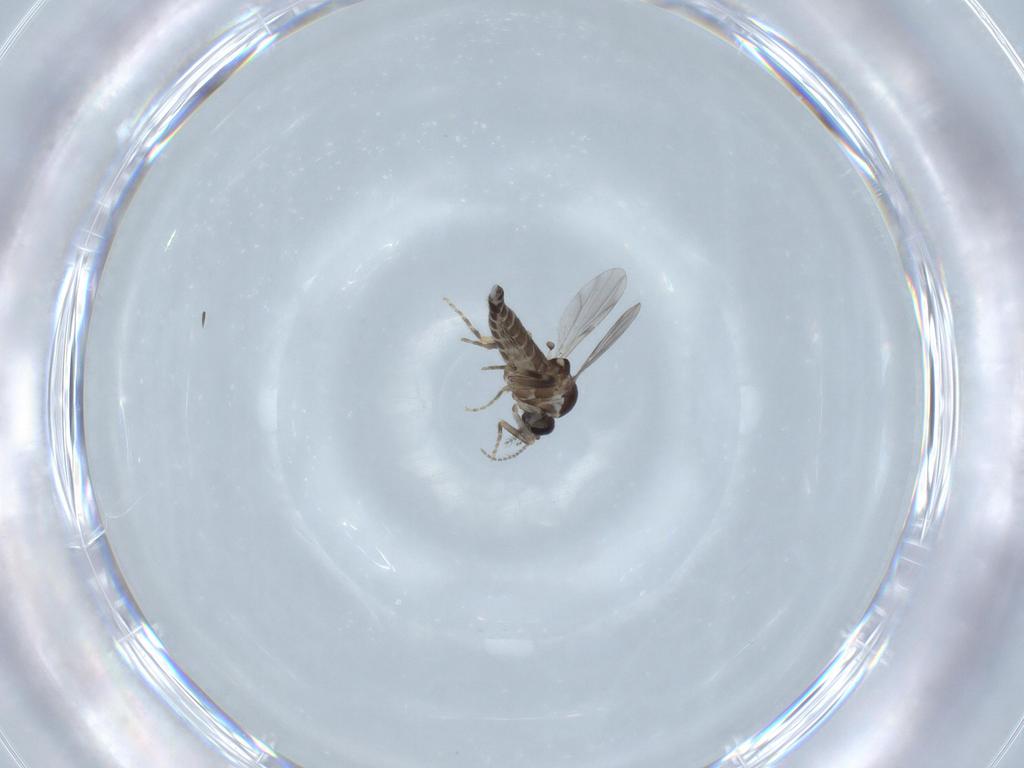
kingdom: Animalia
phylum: Arthropoda
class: Insecta
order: Diptera
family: Ceratopogonidae
